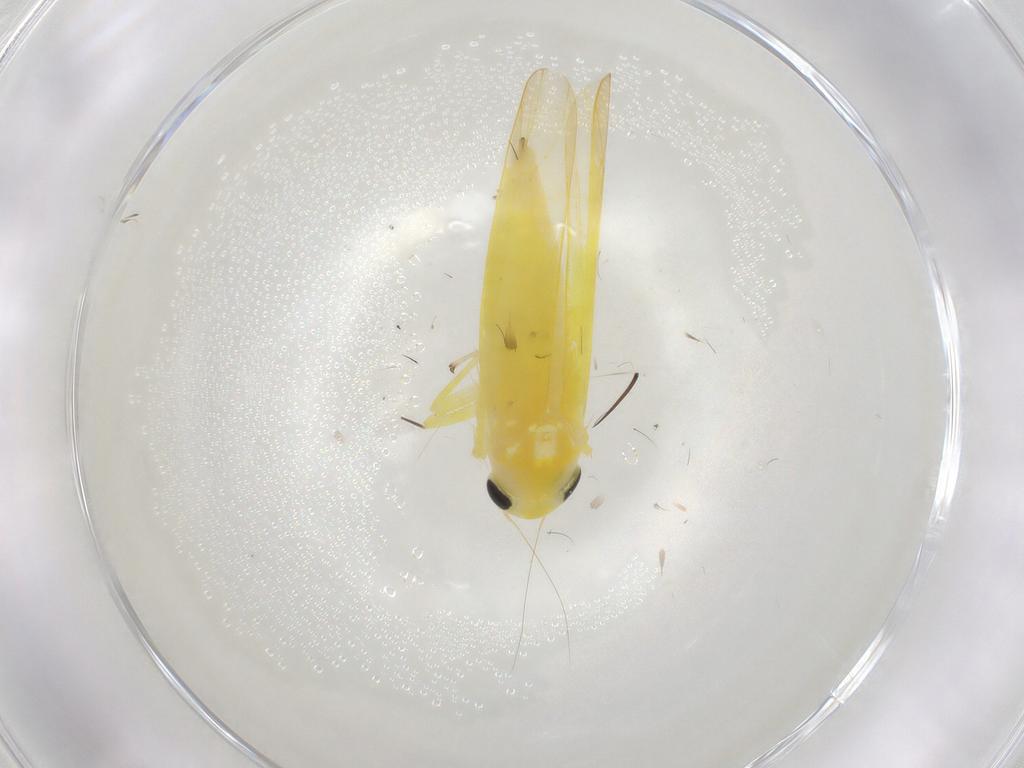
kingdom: Animalia
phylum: Arthropoda
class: Insecta
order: Hemiptera
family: Cicadellidae
